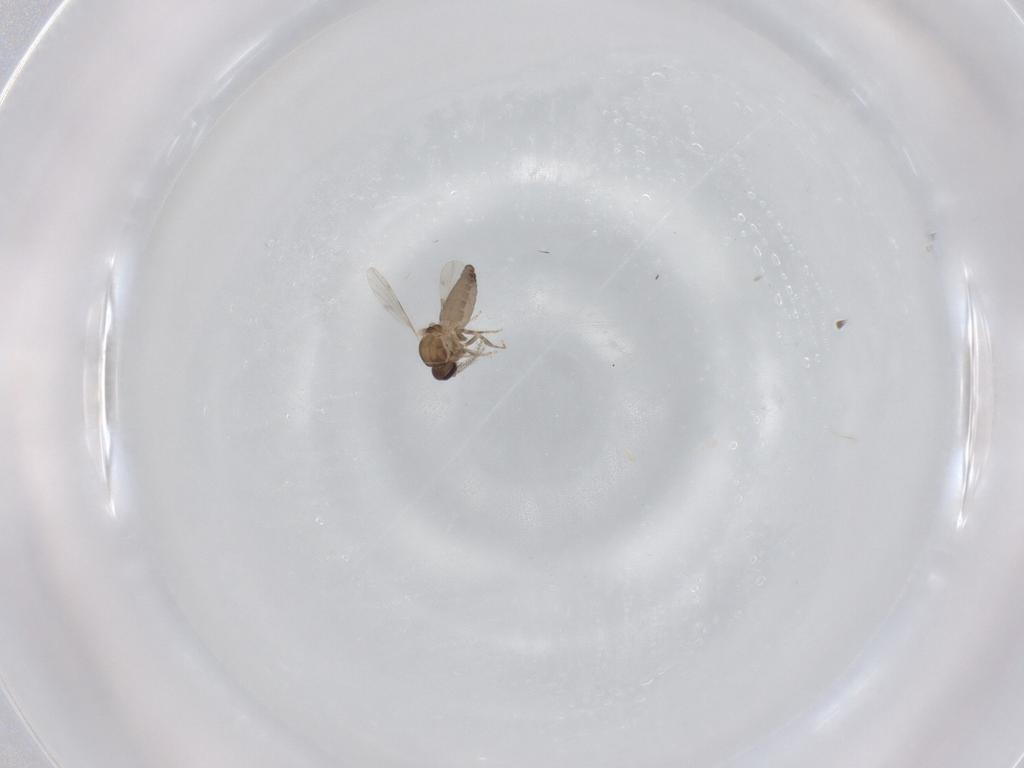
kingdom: Animalia
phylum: Arthropoda
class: Insecta
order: Diptera
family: Ceratopogonidae
